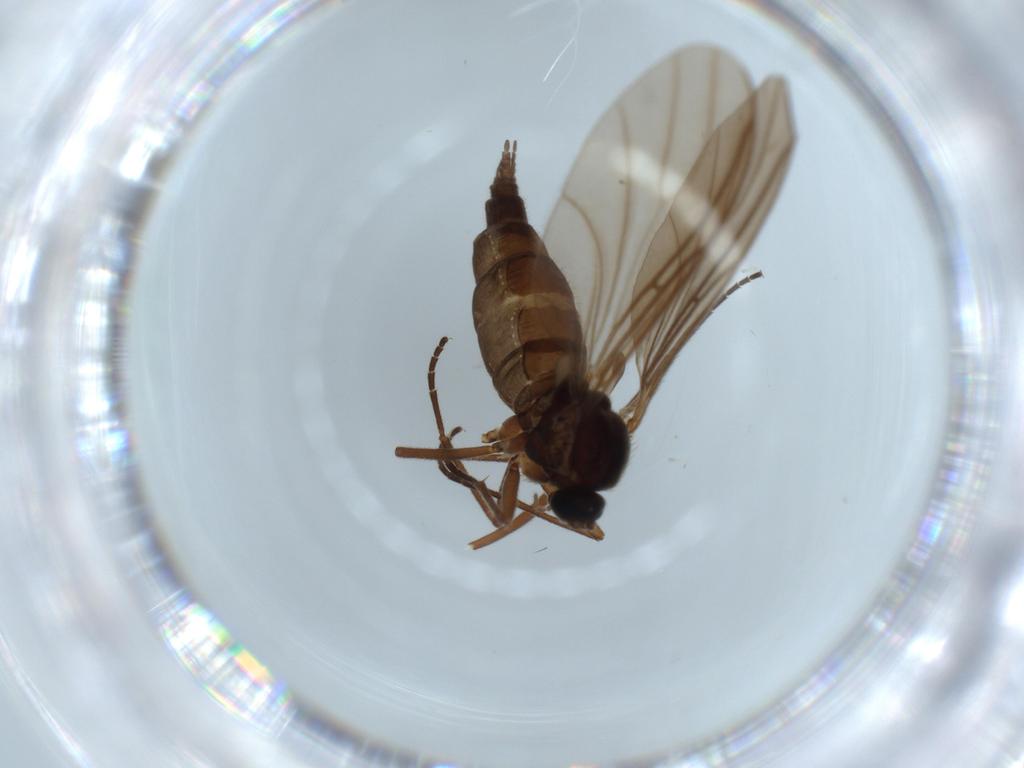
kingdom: Animalia
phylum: Arthropoda
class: Insecta
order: Diptera
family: Sciaridae
